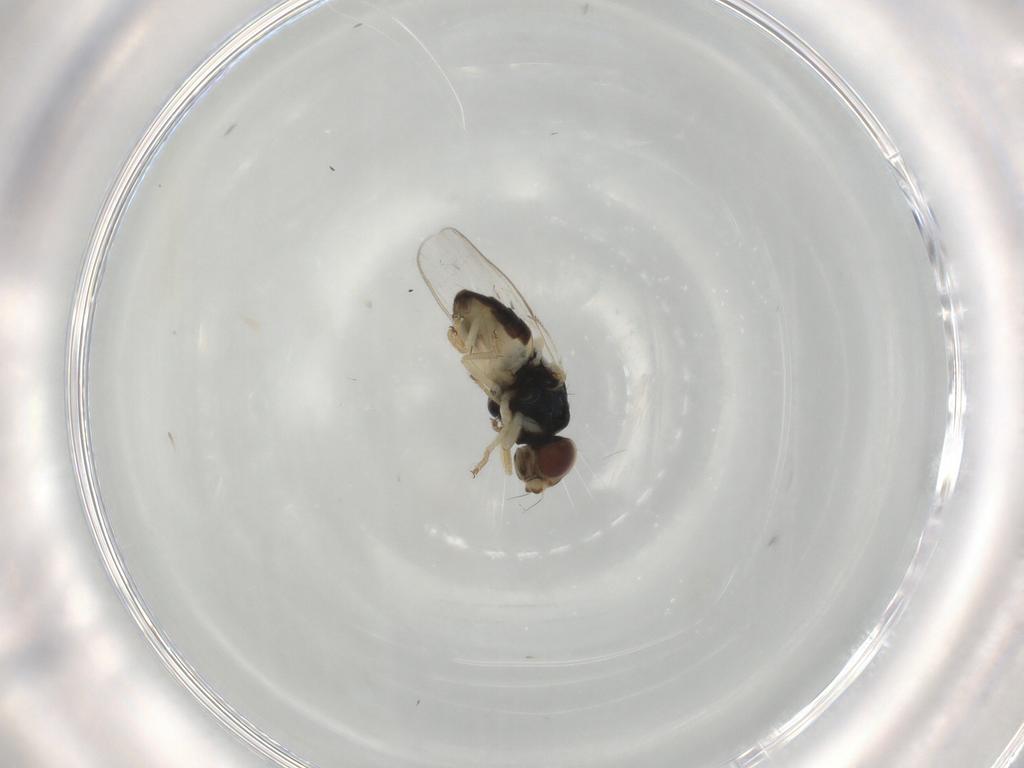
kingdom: Animalia
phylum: Arthropoda
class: Insecta
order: Diptera
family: Chloropidae
